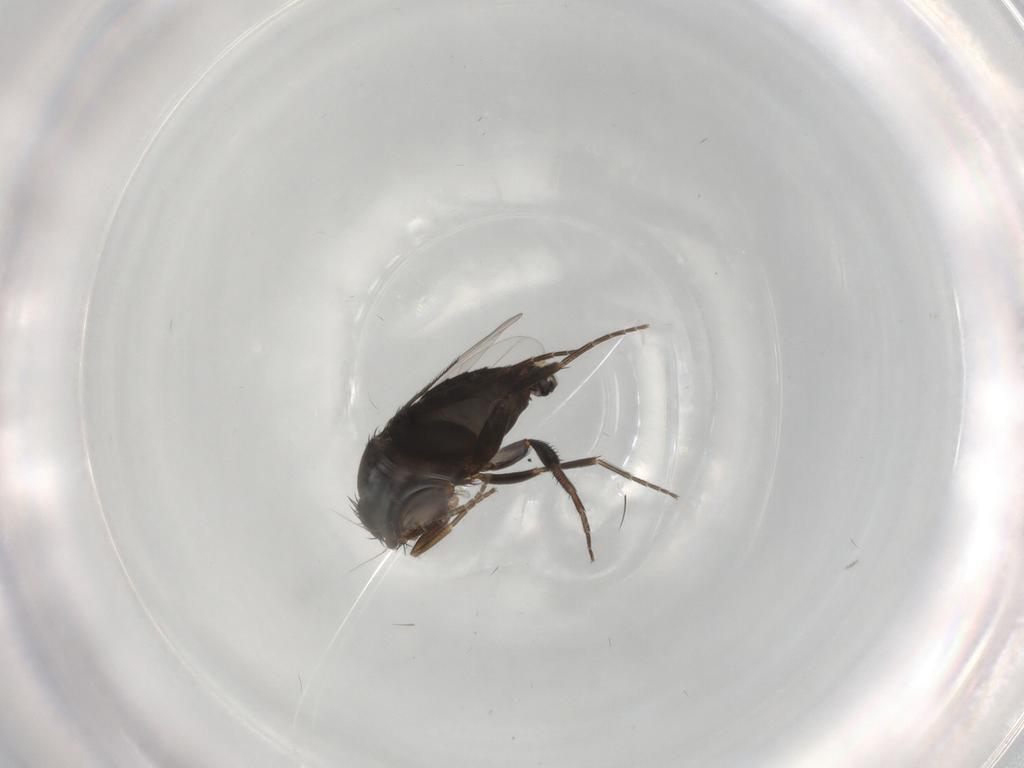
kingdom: Animalia
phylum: Arthropoda
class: Insecta
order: Diptera
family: Phoridae
